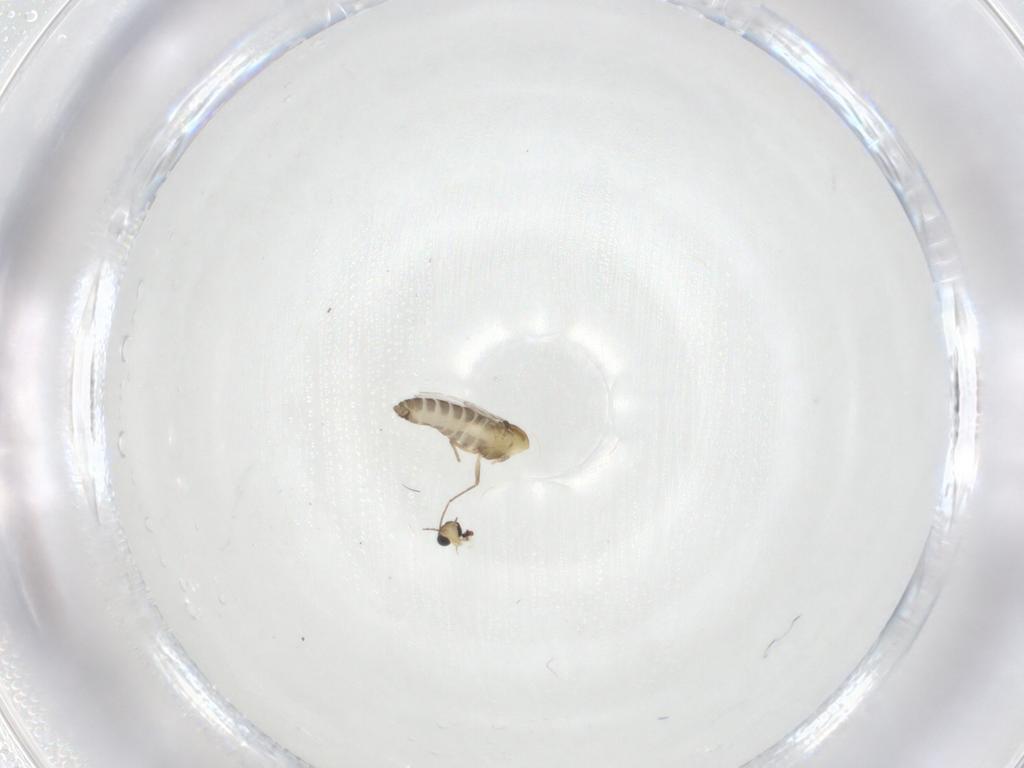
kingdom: Animalia
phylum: Arthropoda
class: Insecta
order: Diptera
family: Chironomidae
